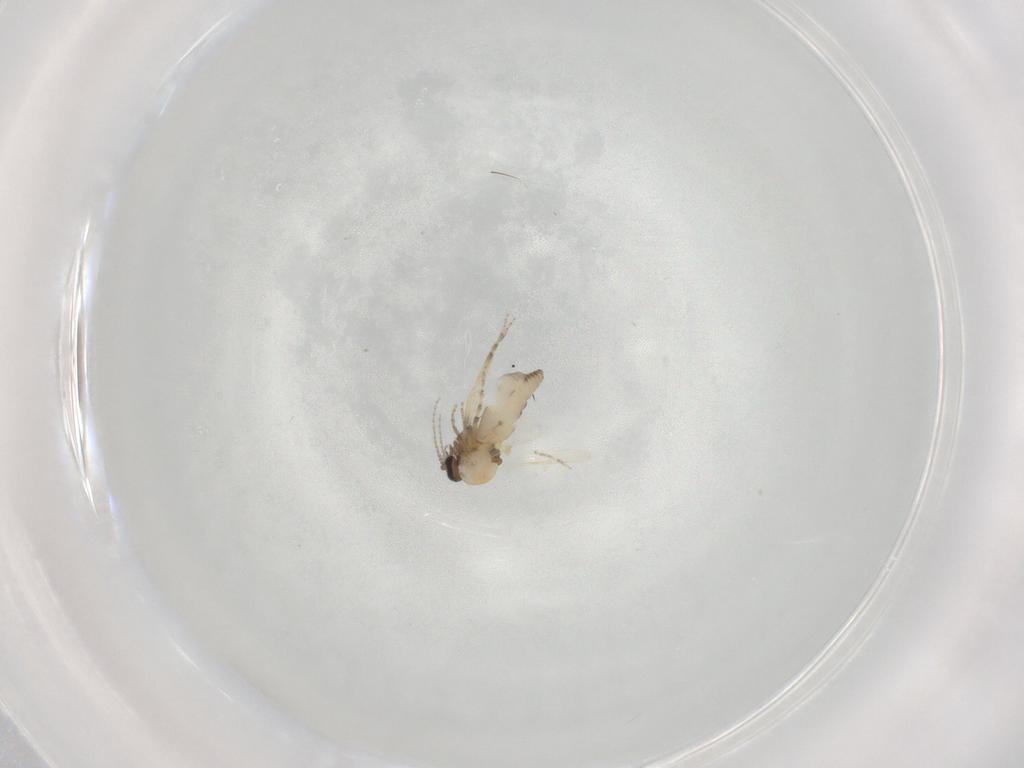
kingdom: Animalia
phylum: Arthropoda
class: Insecta
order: Diptera
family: Ceratopogonidae
